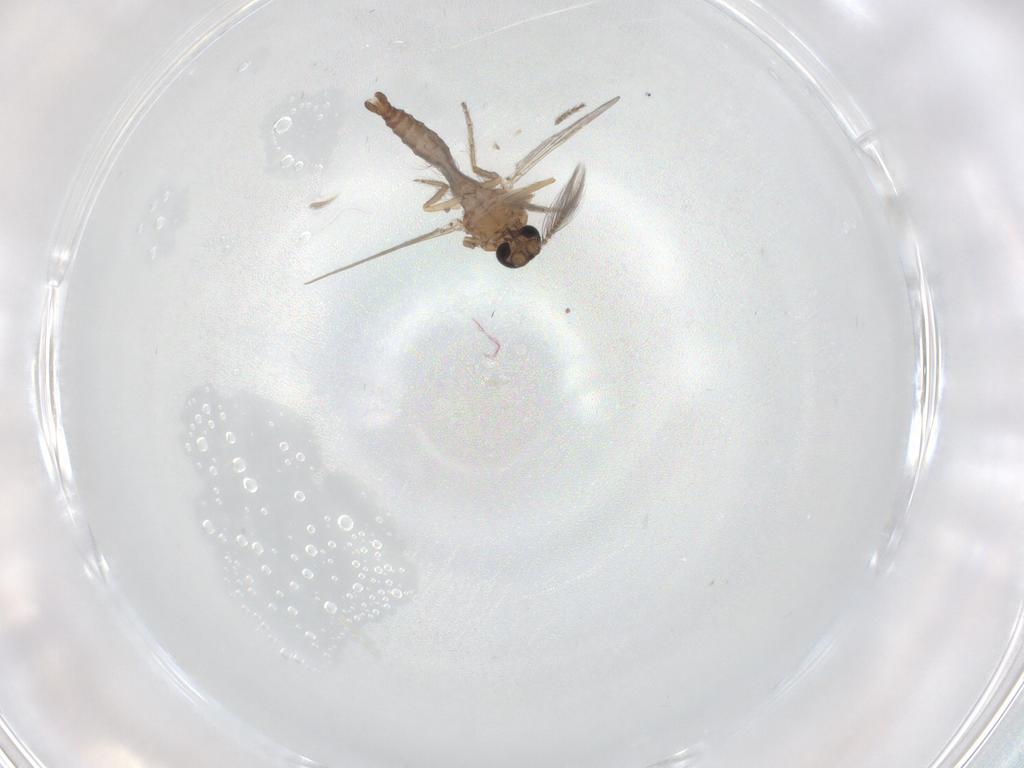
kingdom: Animalia
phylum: Arthropoda
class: Insecta
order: Diptera
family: Ceratopogonidae
